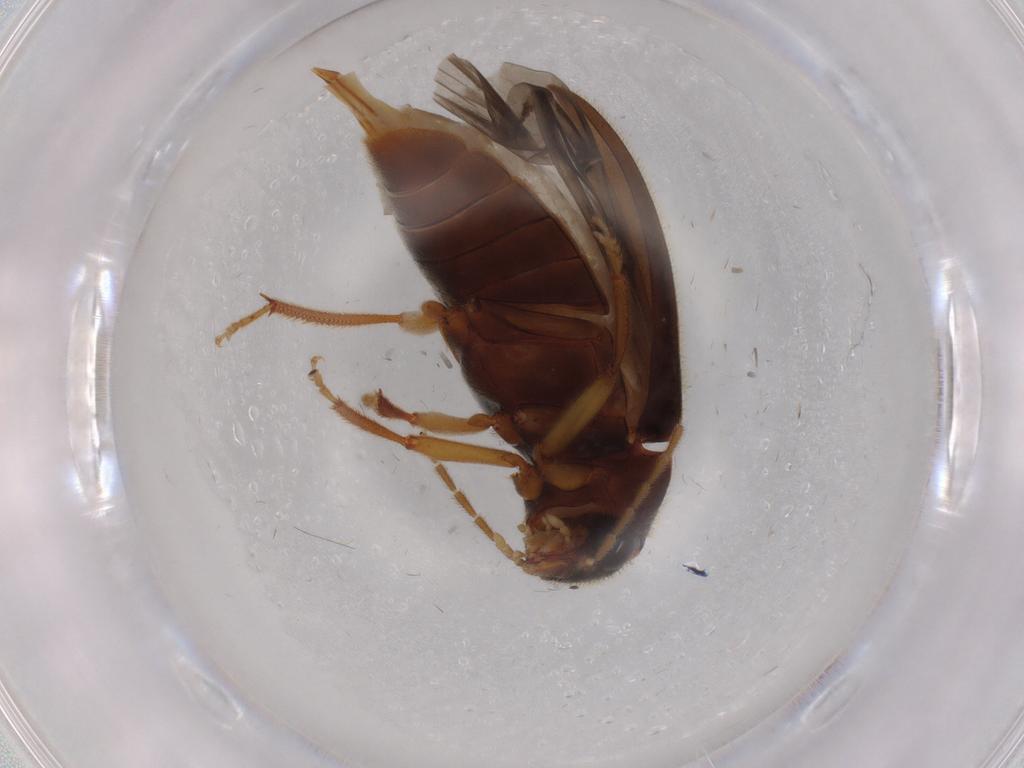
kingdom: Animalia
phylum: Arthropoda
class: Insecta
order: Coleoptera
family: Ptilodactylidae
